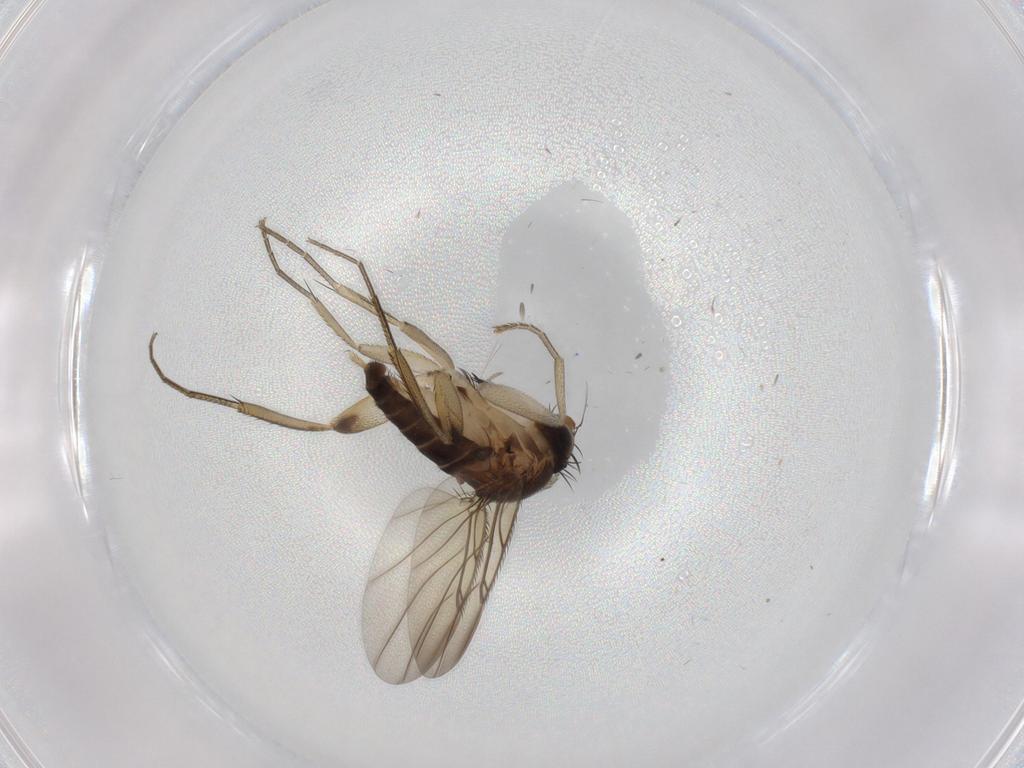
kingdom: Animalia
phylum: Arthropoda
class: Insecta
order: Diptera
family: Phoridae
